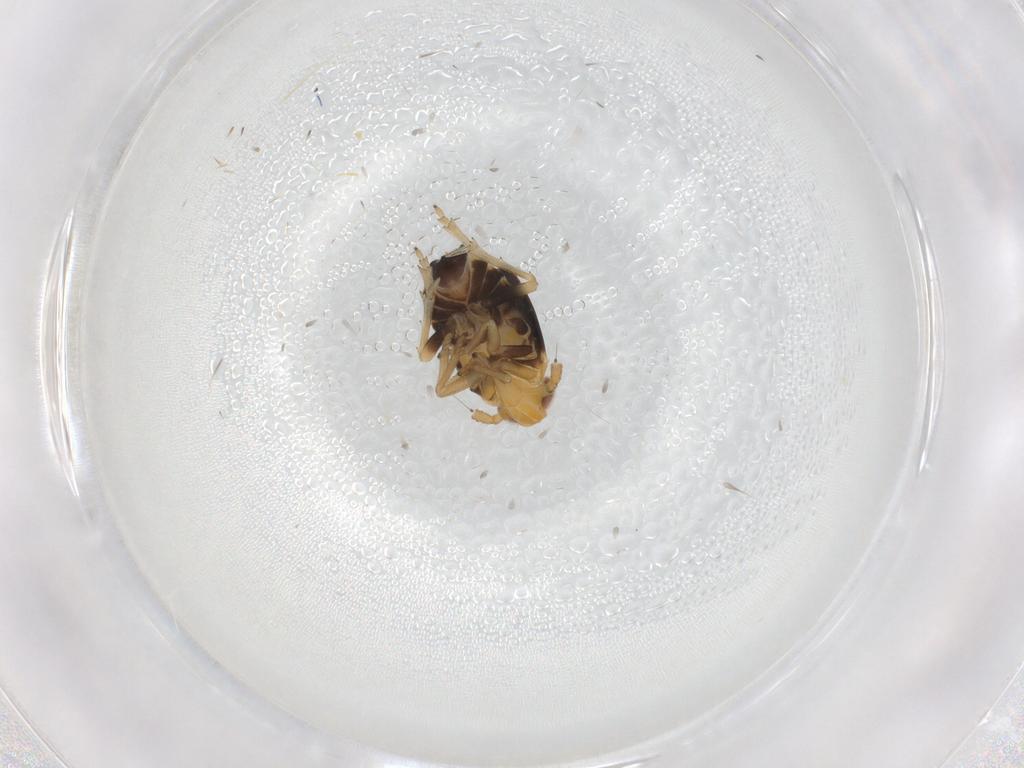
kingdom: Animalia
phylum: Arthropoda
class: Insecta
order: Hemiptera
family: Delphacidae
